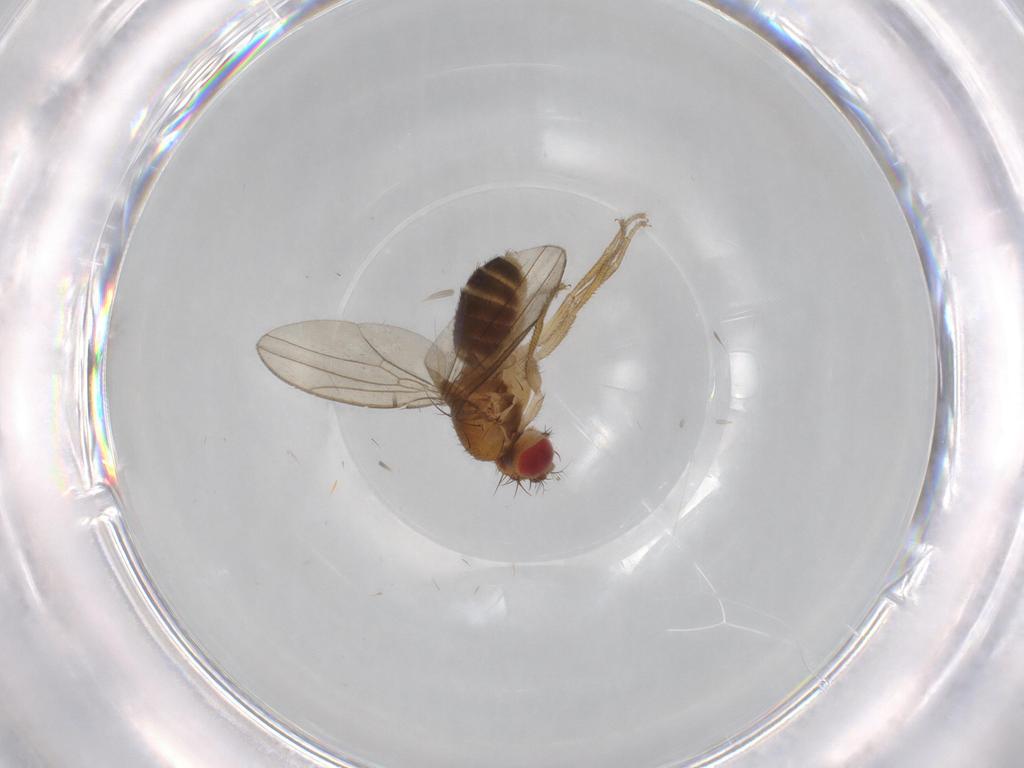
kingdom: Animalia
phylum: Arthropoda
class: Insecta
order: Diptera
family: Drosophilidae
